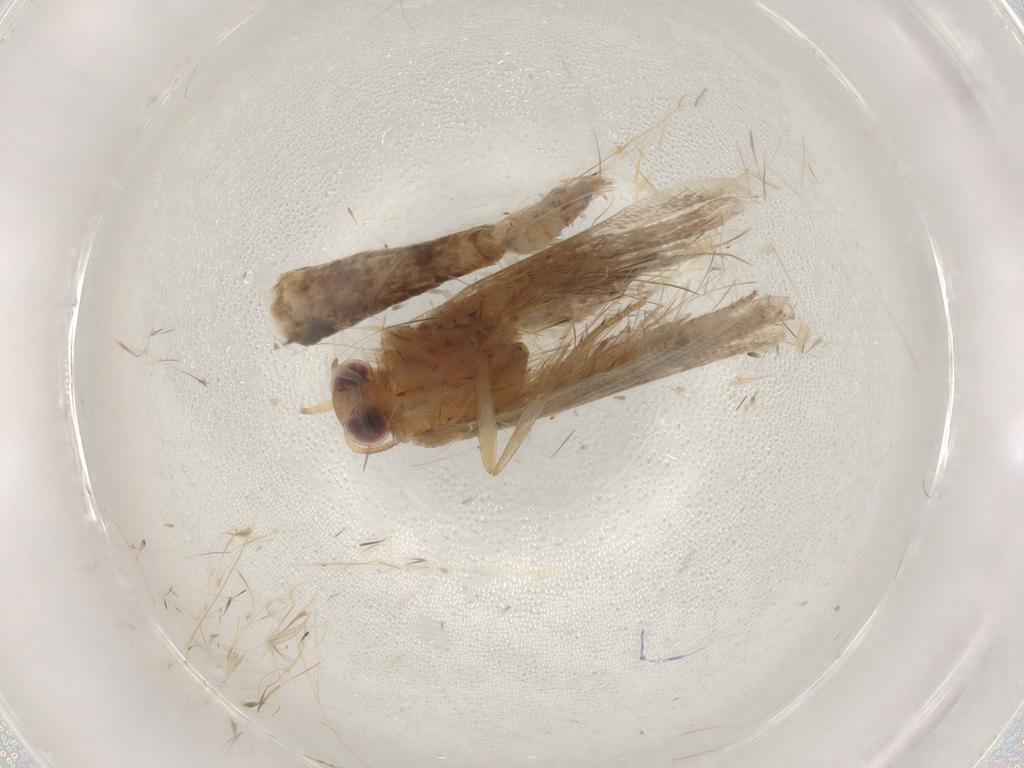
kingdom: Animalia
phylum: Arthropoda
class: Insecta
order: Lepidoptera
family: Tortricidae
